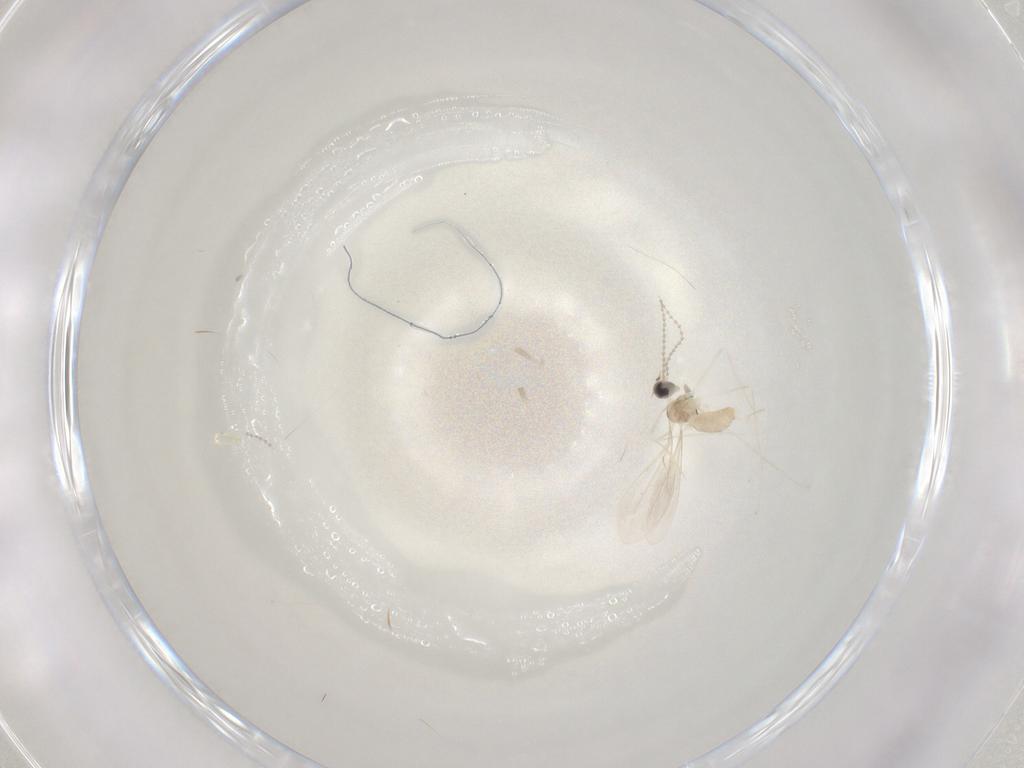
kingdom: Animalia
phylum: Arthropoda
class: Insecta
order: Diptera
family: Cecidomyiidae
